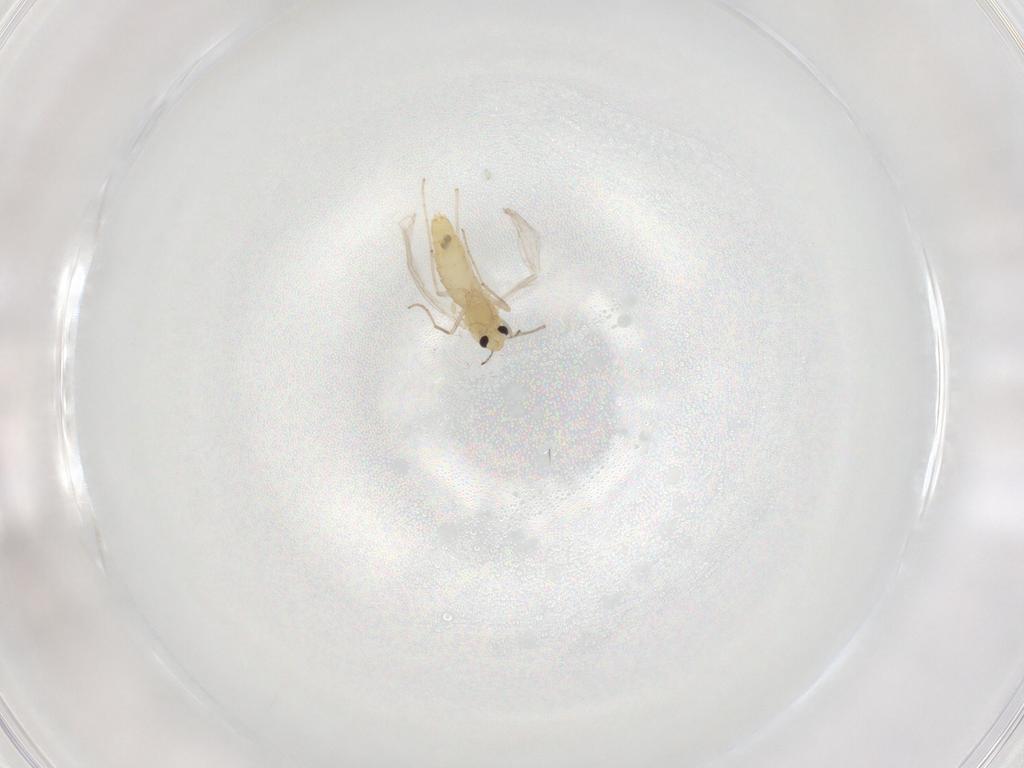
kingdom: Animalia
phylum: Arthropoda
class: Insecta
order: Diptera
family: Chironomidae
